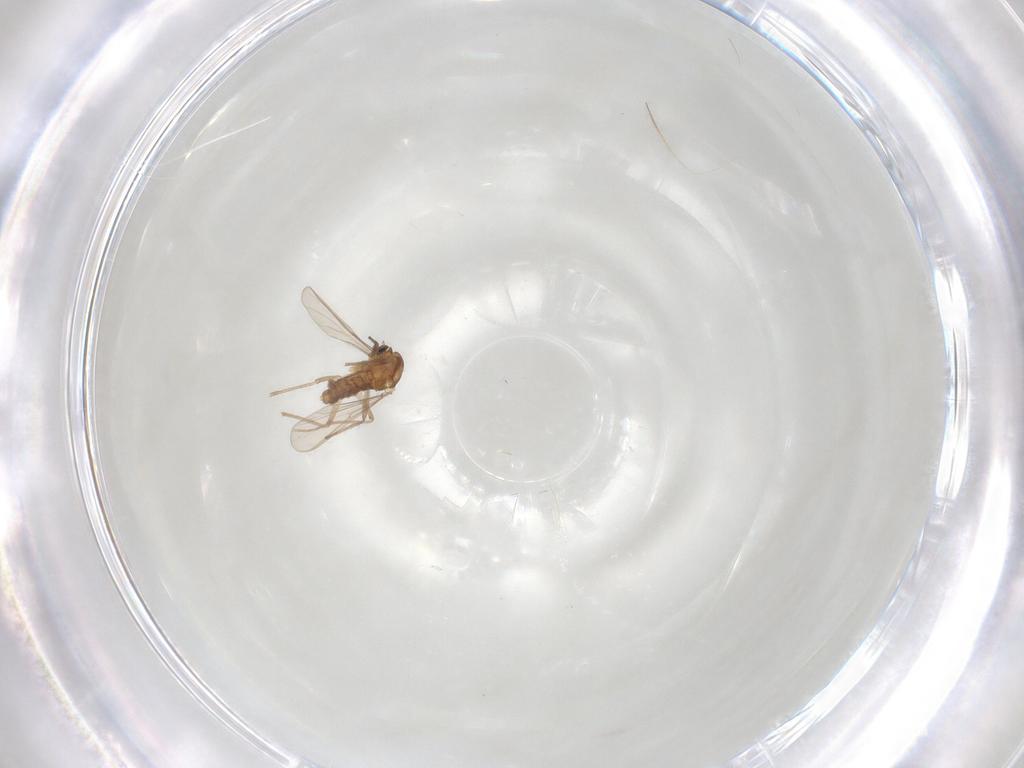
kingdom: Animalia
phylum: Arthropoda
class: Insecta
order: Diptera
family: Chironomidae
